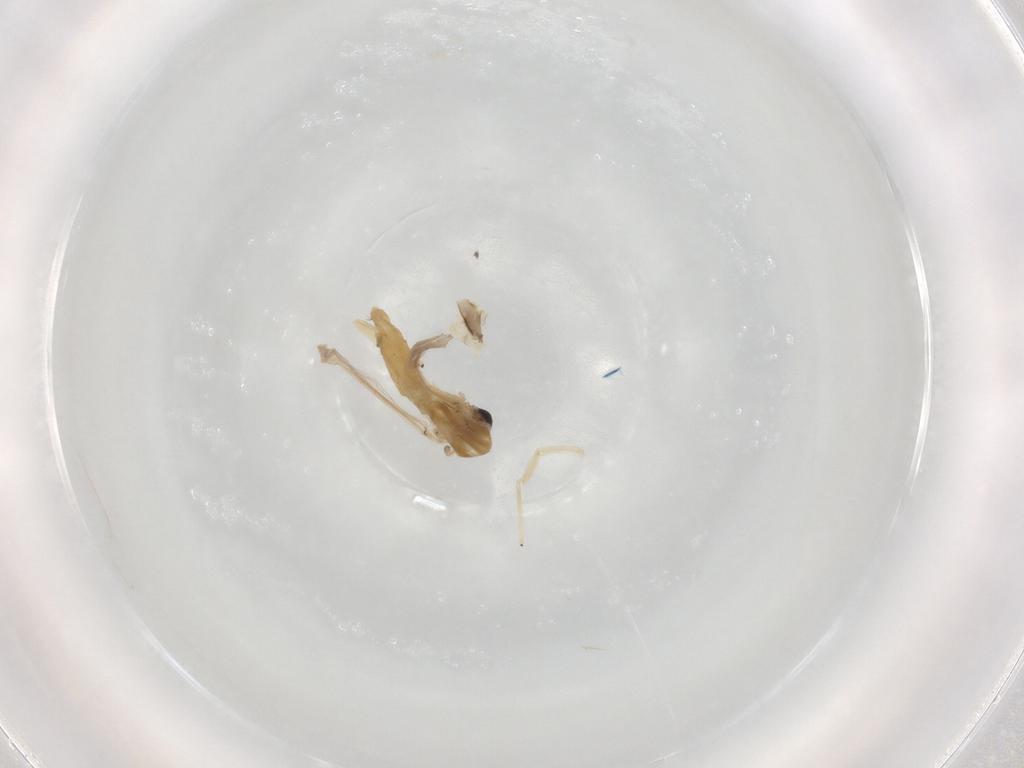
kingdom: Animalia
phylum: Arthropoda
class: Insecta
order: Diptera
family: Chironomidae
